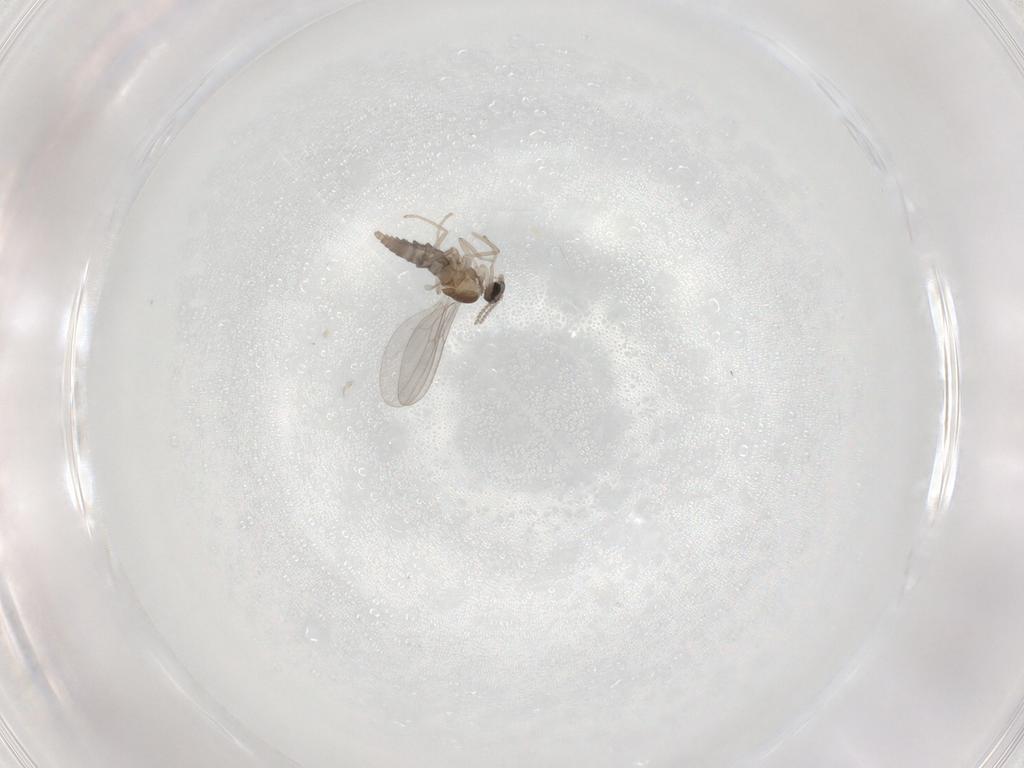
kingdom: Animalia
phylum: Arthropoda
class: Insecta
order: Diptera
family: Cecidomyiidae
